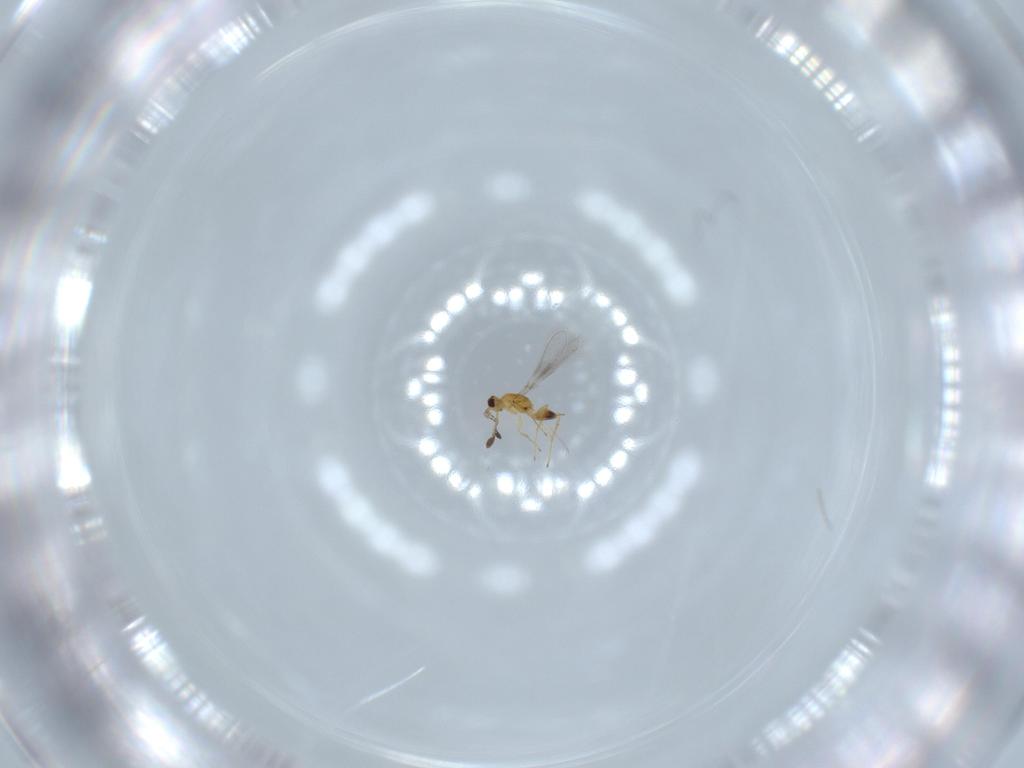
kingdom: Animalia
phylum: Arthropoda
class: Insecta
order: Hymenoptera
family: Mymaridae
